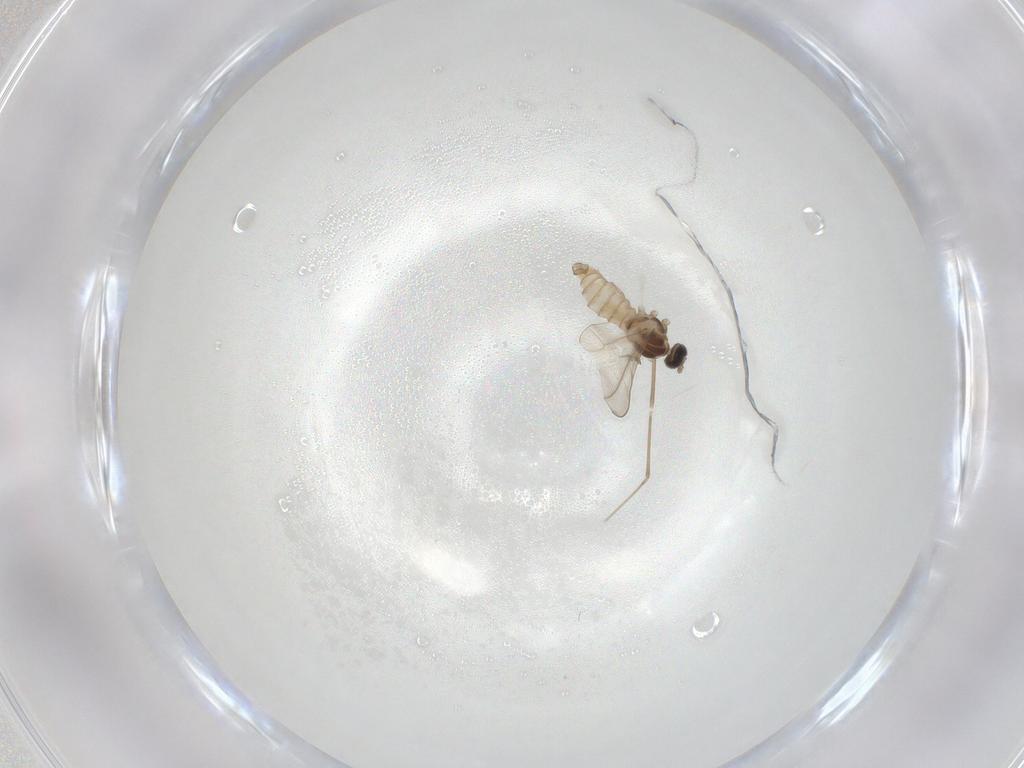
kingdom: Animalia
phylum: Arthropoda
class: Insecta
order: Diptera
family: Cecidomyiidae
